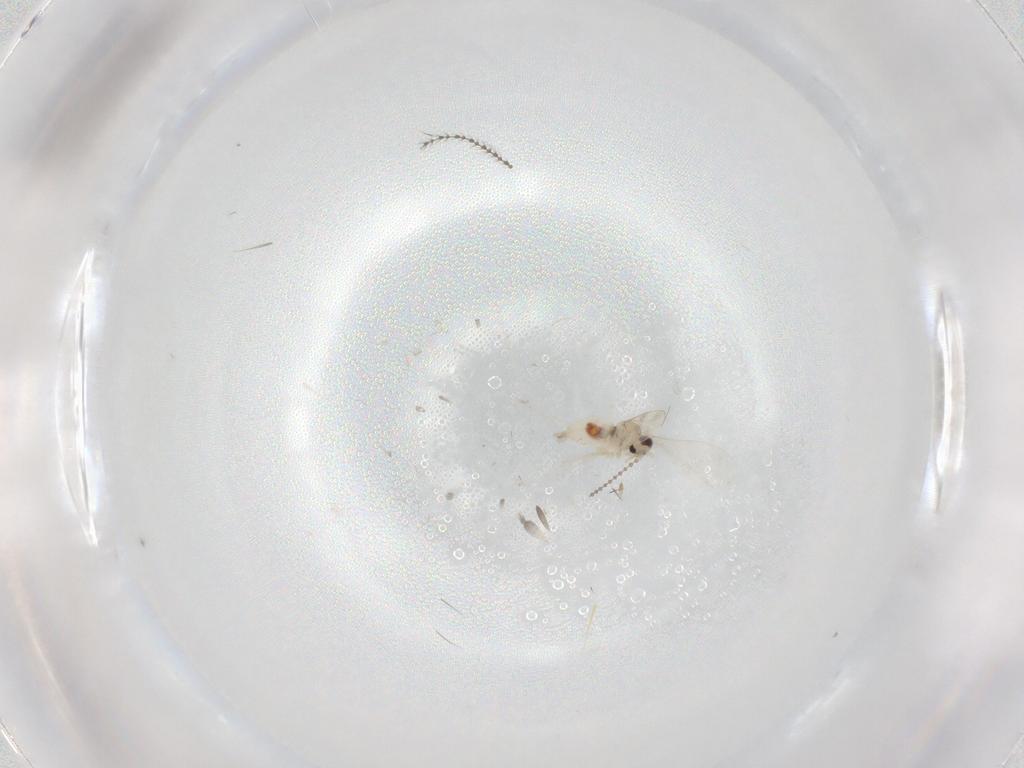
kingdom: Animalia
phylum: Arthropoda
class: Insecta
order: Diptera
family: Cecidomyiidae
